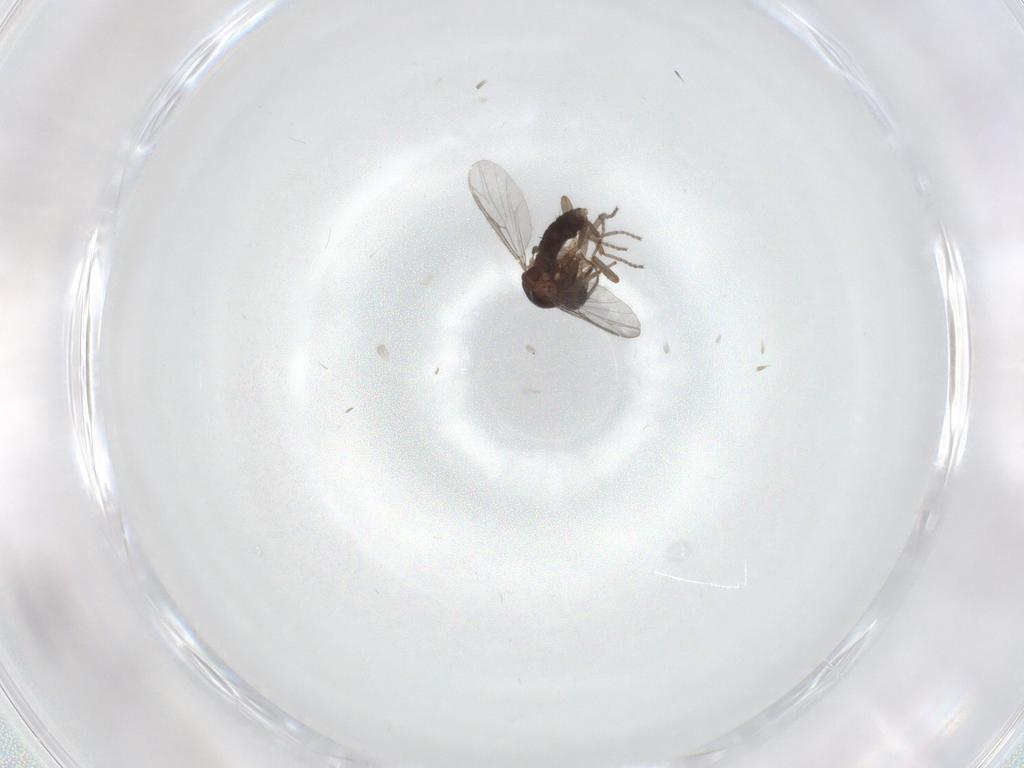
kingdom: Animalia
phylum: Arthropoda
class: Insecta
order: Diptera
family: Ceratopogonidae
